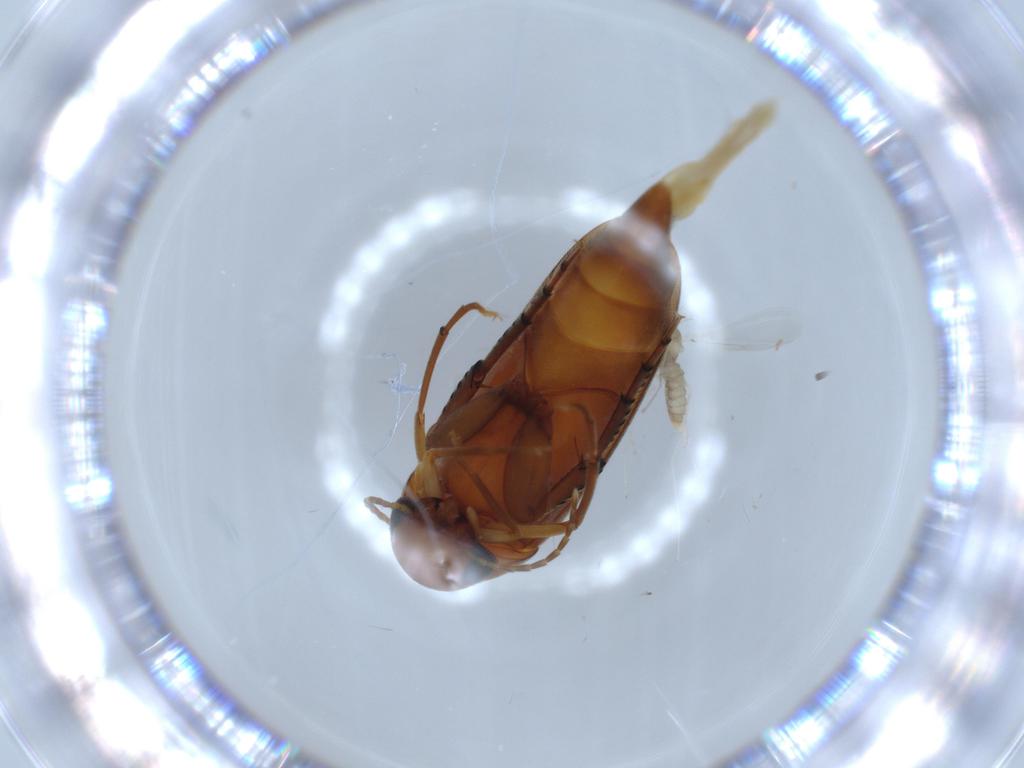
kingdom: Animalia
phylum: Arthropoda
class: Insecta
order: Coleoptera
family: Mordellidae
